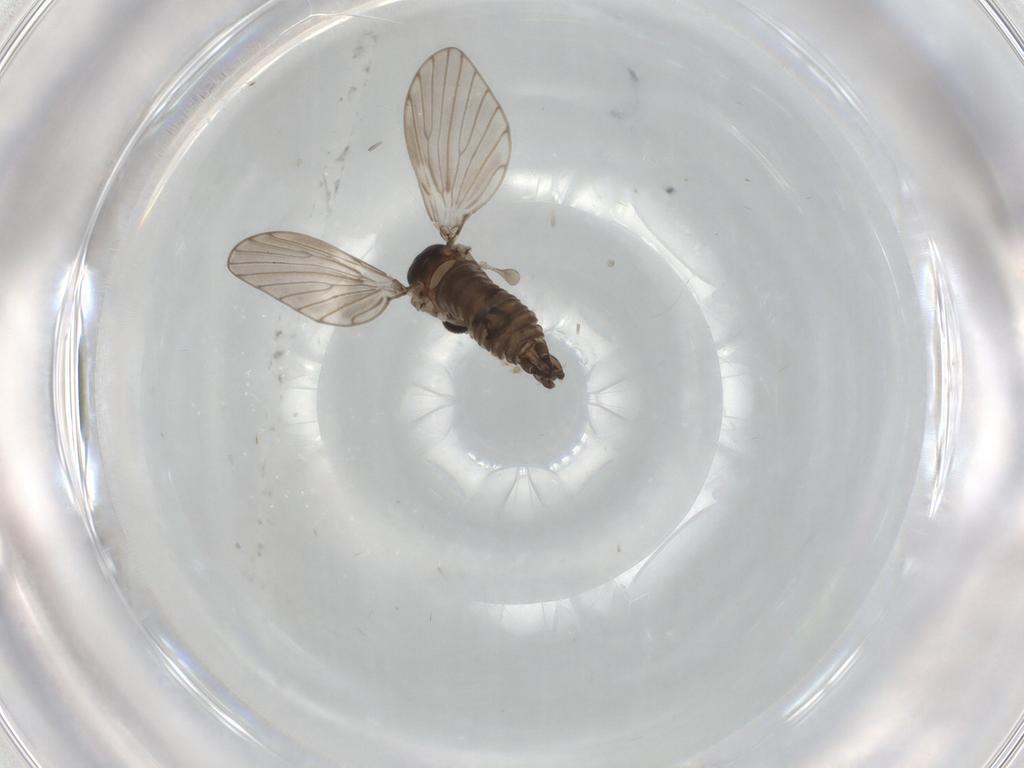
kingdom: Animalia
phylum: Arthropoda
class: Insecta
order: Diptera
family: Psychodidae
